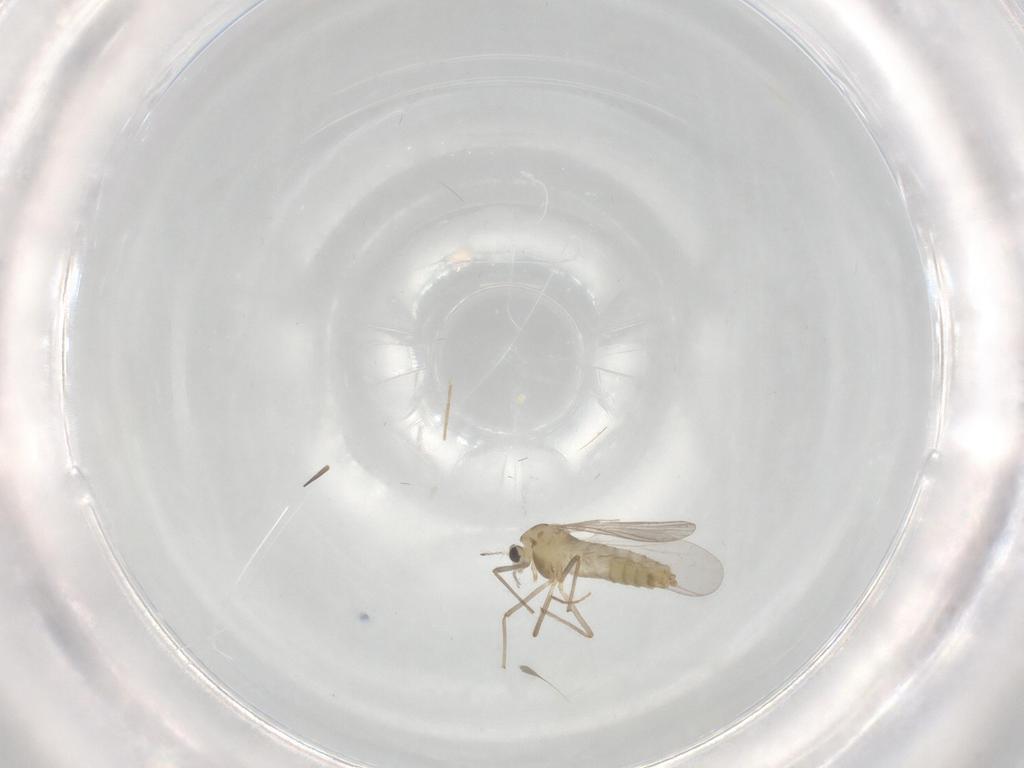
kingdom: Animalia
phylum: Arthropoda
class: Insecta
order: Diptera
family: Chironomidae
